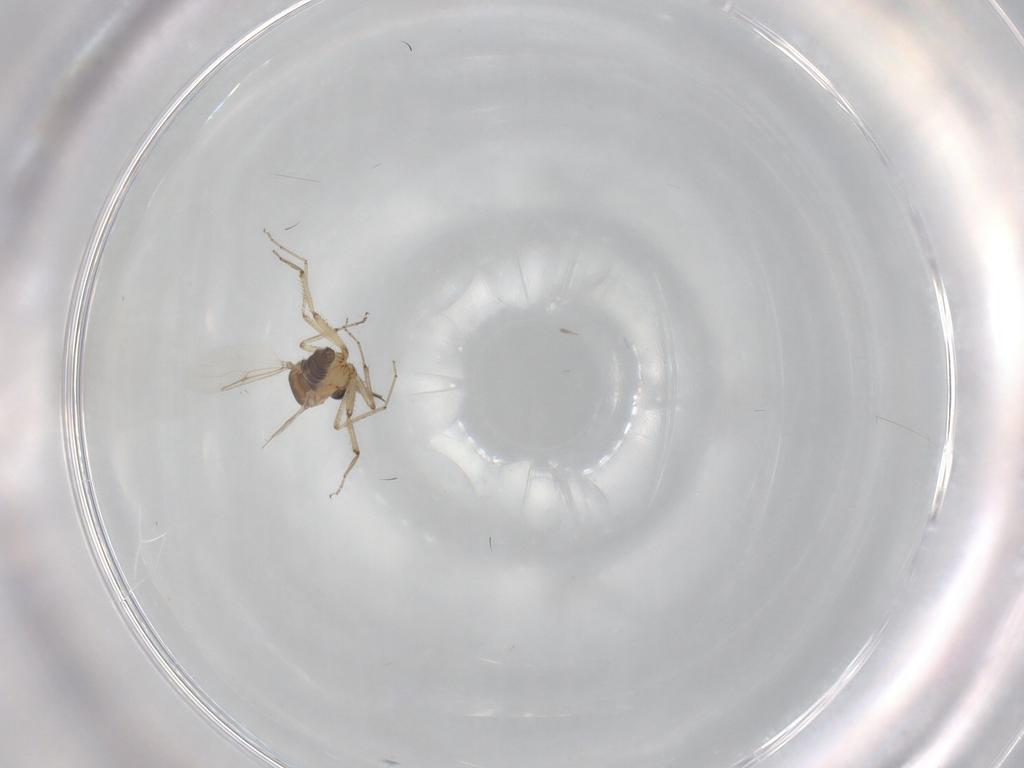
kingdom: Animalia
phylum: Arthropoda
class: Insecta
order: Diptera
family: Ceratopogonidae
